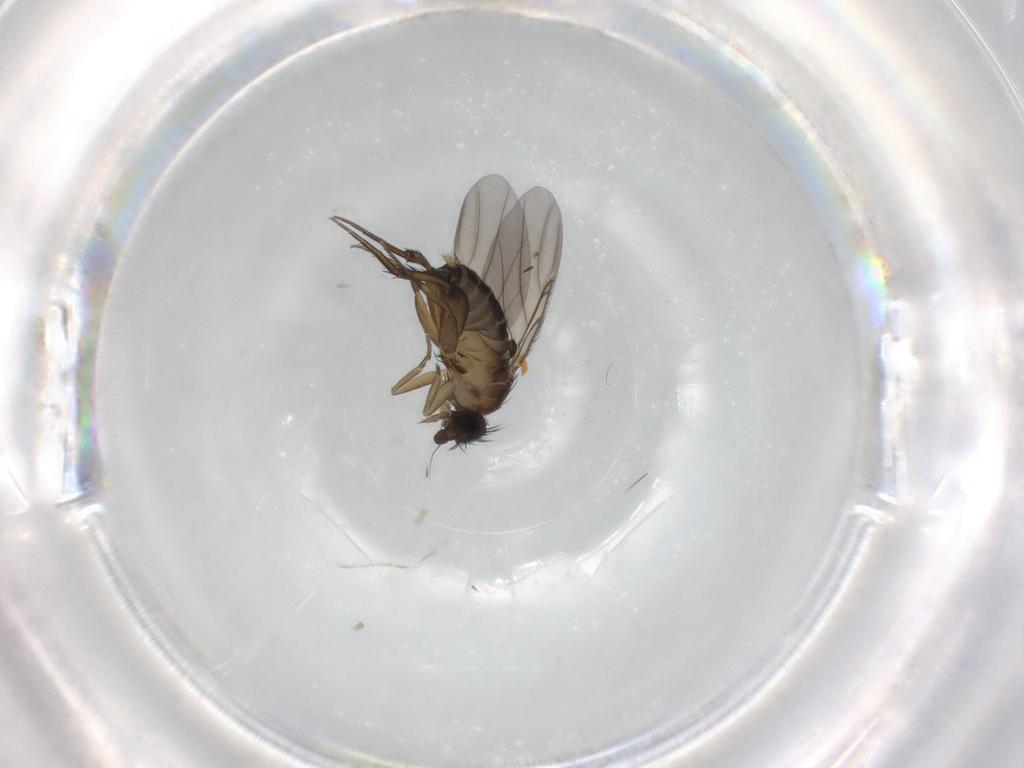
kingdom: Animalia
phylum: Arthropoda
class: Insecta
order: Diptera
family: Phoridae
